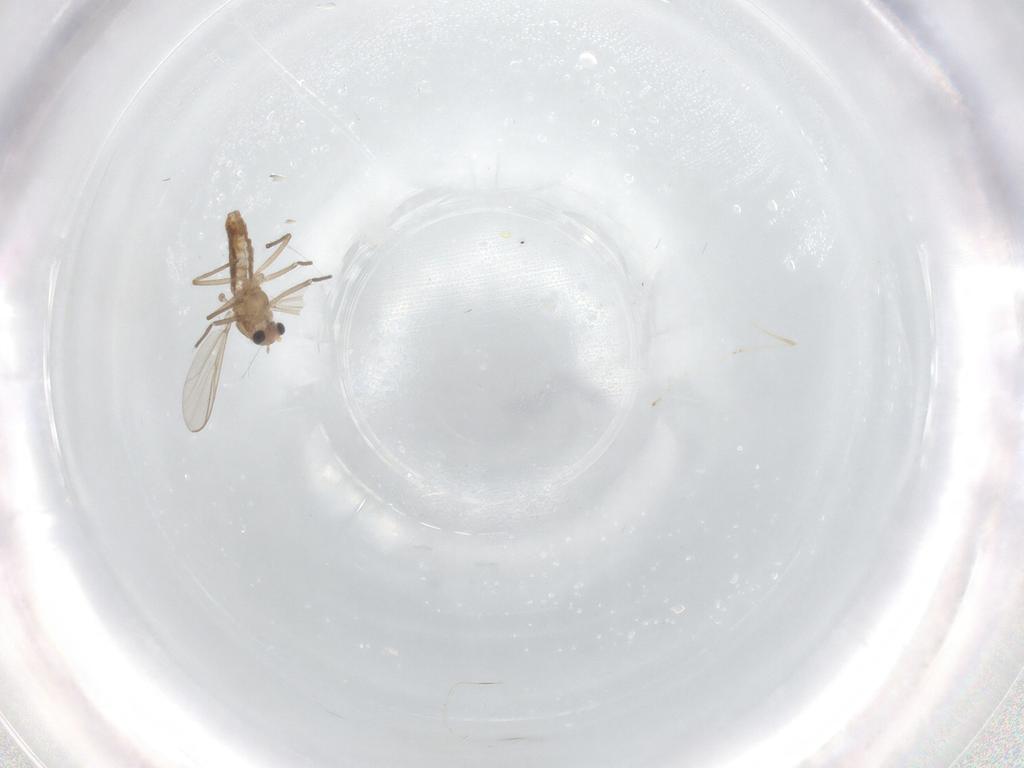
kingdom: Animalia
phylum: Arthropoda
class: Insecta
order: Diptera
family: Chironomidae
